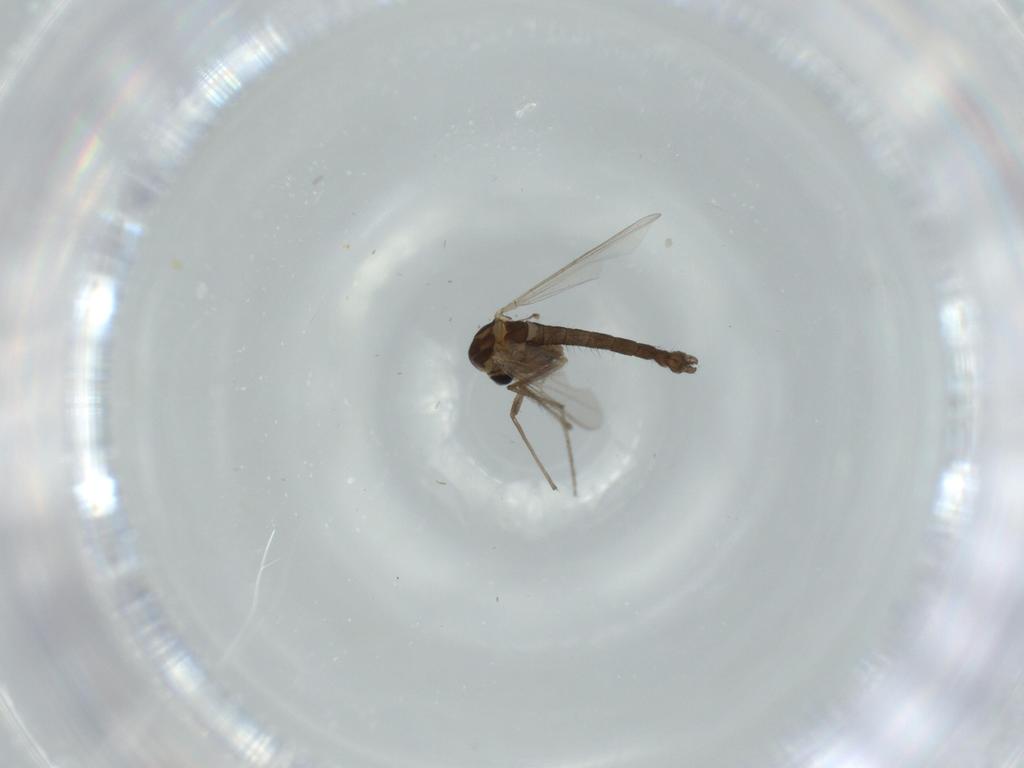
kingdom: Animalia
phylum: Arthropoda
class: Insecta
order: Diptera
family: Chironomidae
